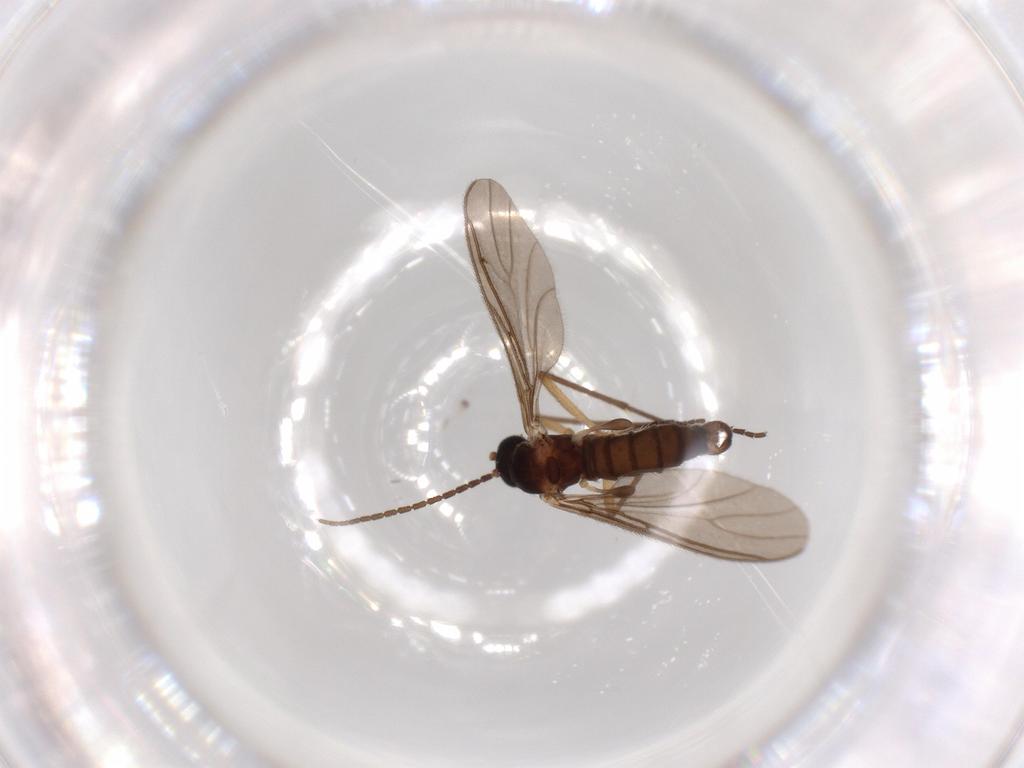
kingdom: Animalia
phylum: Arthropoda
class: Insecta
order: Diptera
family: Sciaridae
